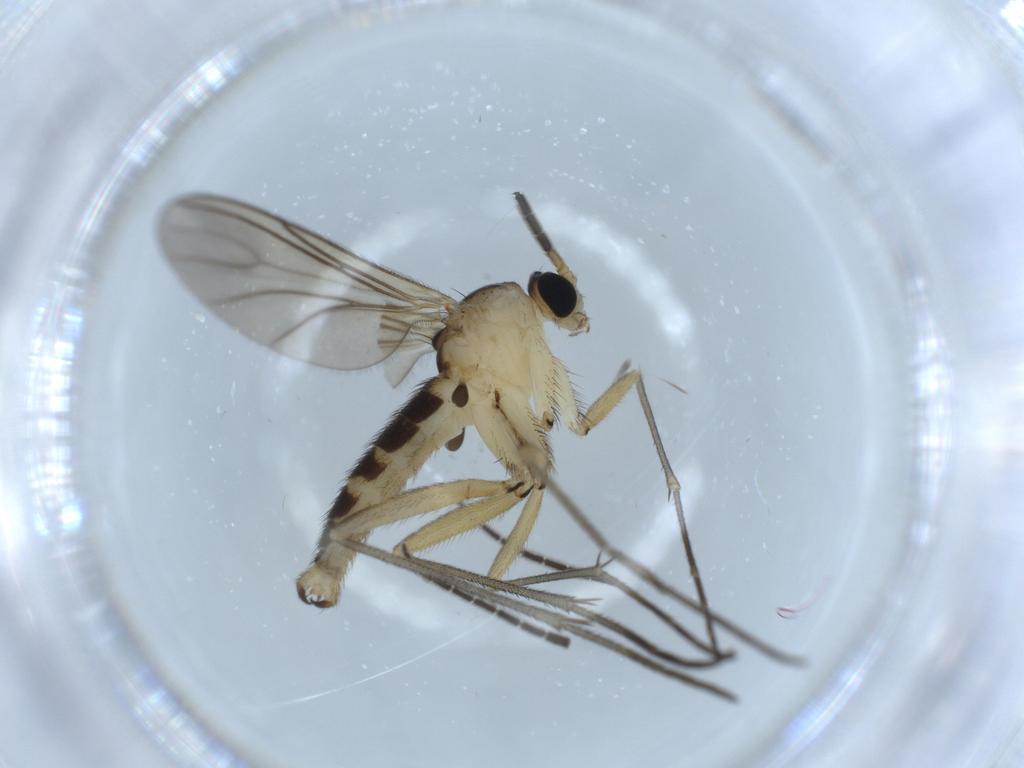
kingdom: Animalia
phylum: Arthropoda
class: Insecta
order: Diptera
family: Sciaridae
